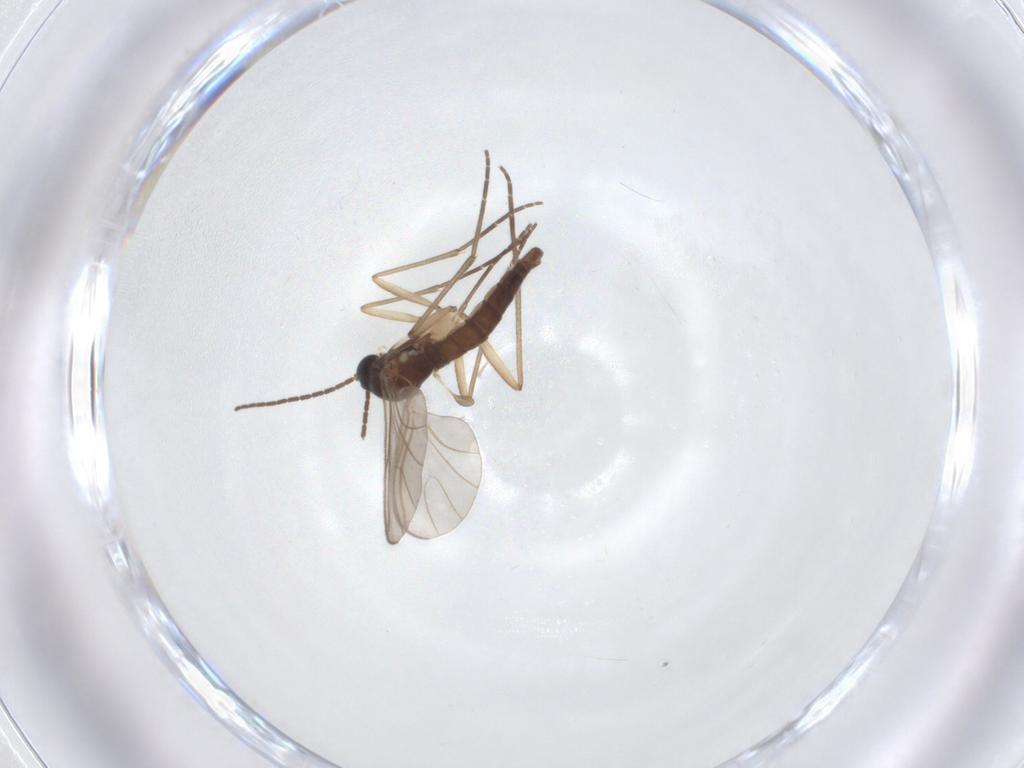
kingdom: Animalia
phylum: Arthropoda
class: Insecta
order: Diptera
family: Sciaridae
